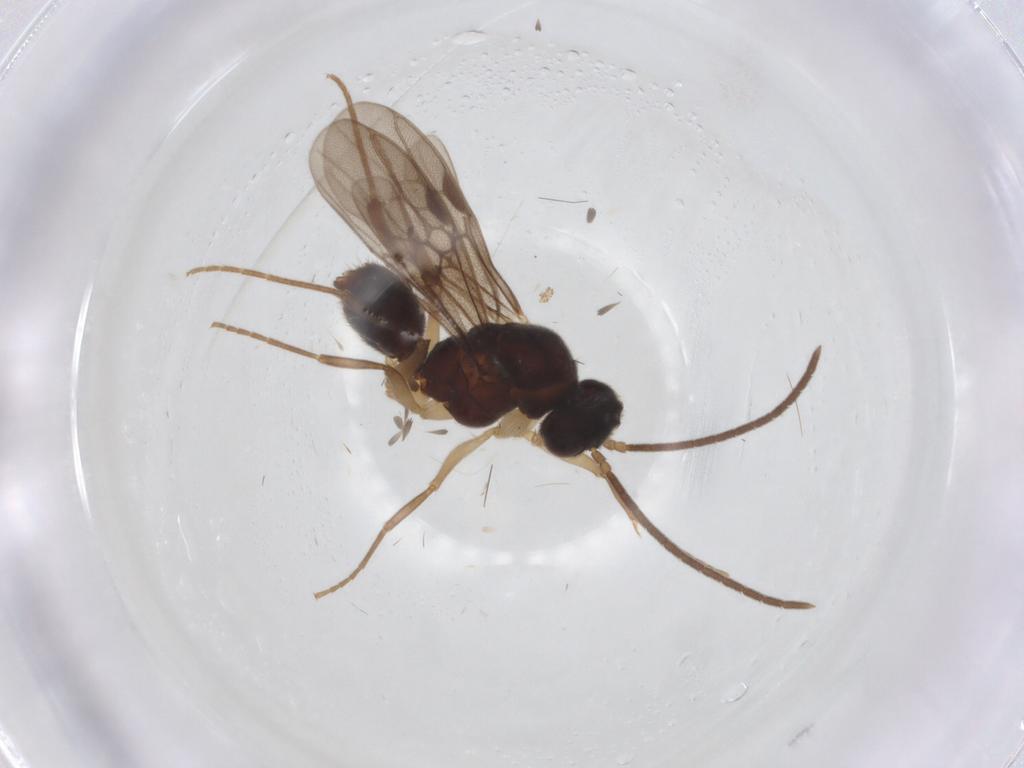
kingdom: Animalia
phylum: Arthropoda
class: Insecta
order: Hymenoptera
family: Formicidae
